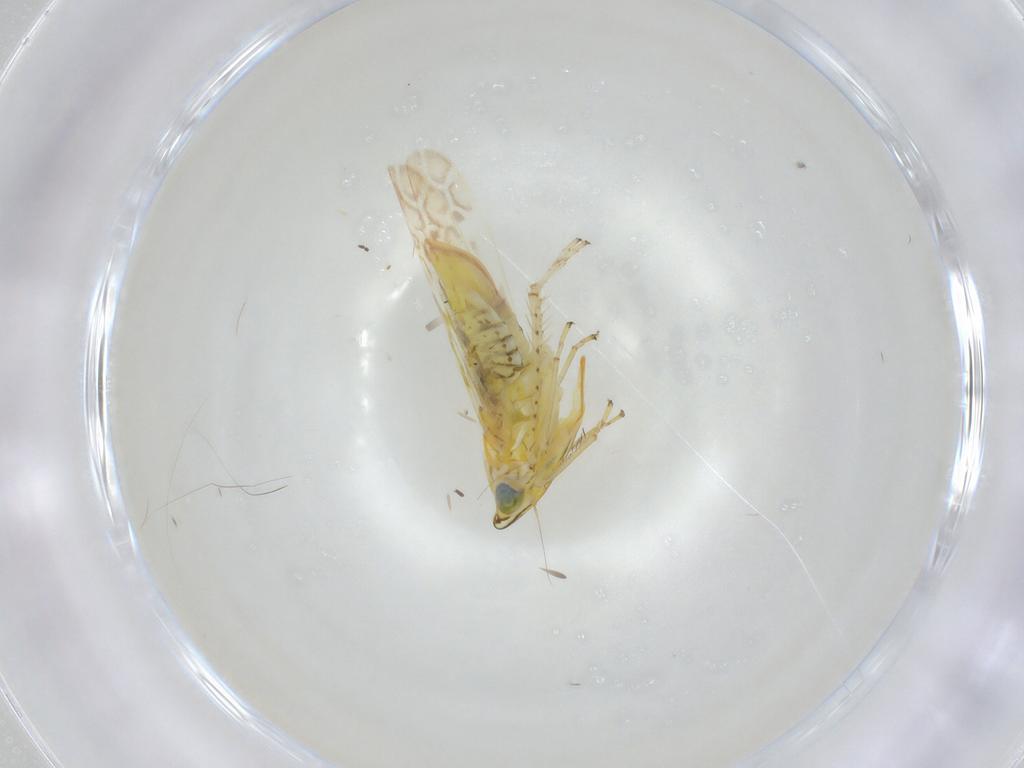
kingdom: Animalia
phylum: Arthropoda
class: Insecta
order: Hemiptera
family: Cicadellidae
